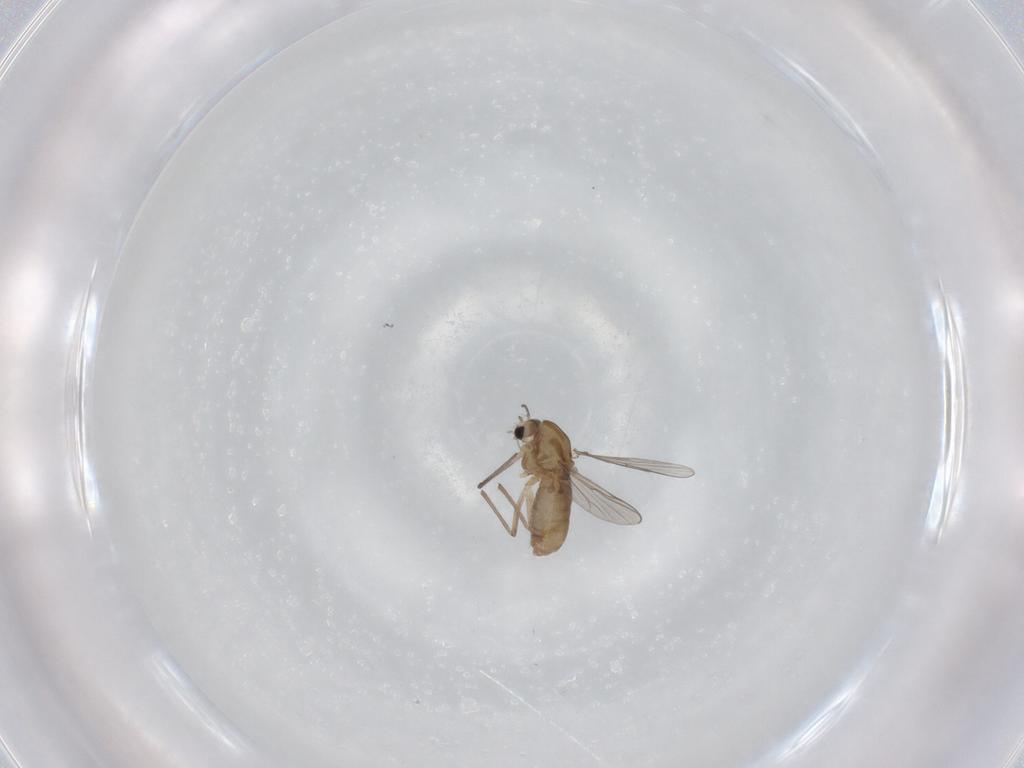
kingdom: Animalia
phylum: Arthropoda
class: Insecta
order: Diptera
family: Chironomidae
